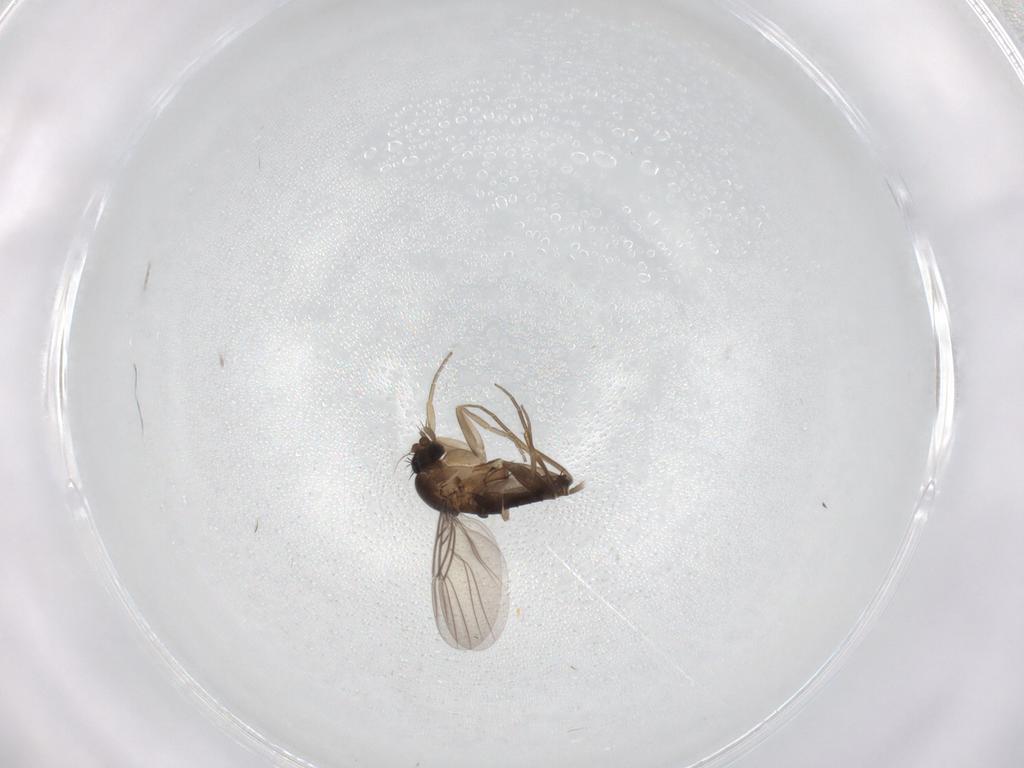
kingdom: Animalia
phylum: Arthropoda
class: Insecta
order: Diptera
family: Phoridae
